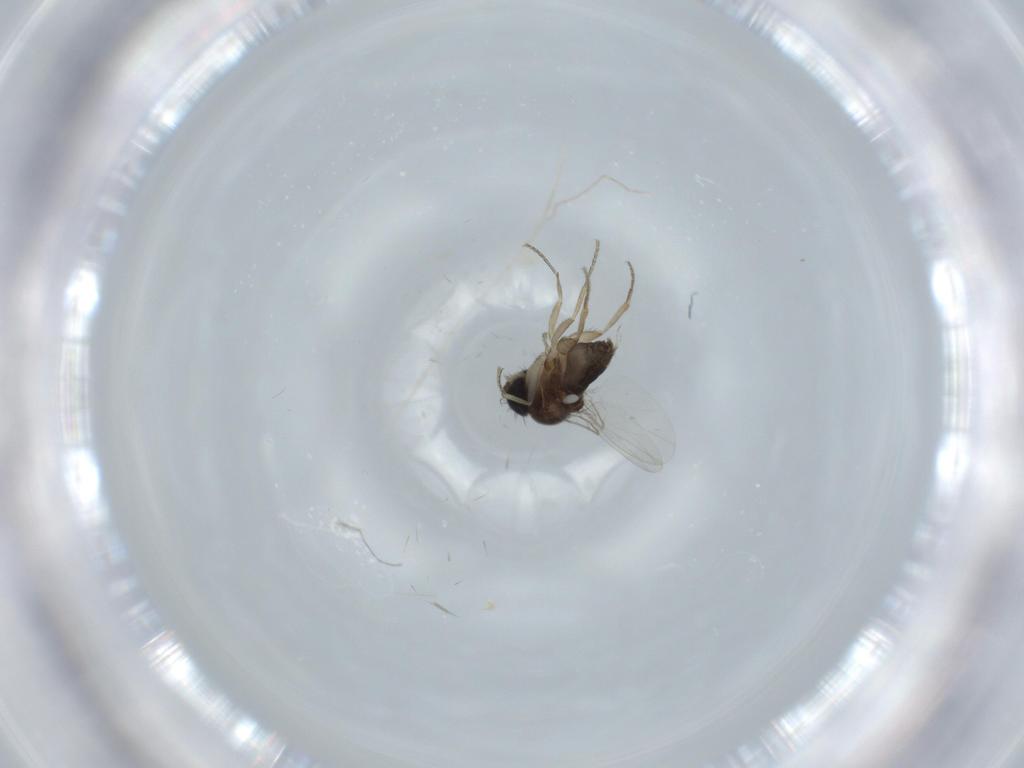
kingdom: Animalia
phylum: Arthropoda
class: Insecta
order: Diptera
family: Phoridae
